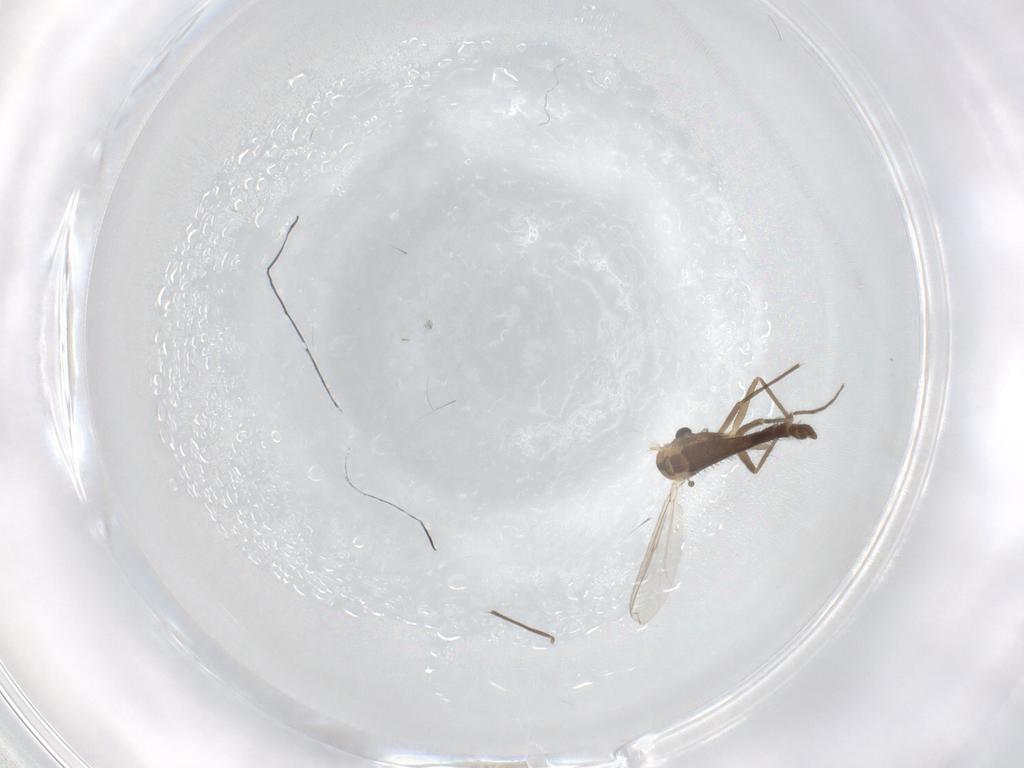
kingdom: Animalia
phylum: Arthropoda
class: Insecta
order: Diptera
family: Chironomidae
